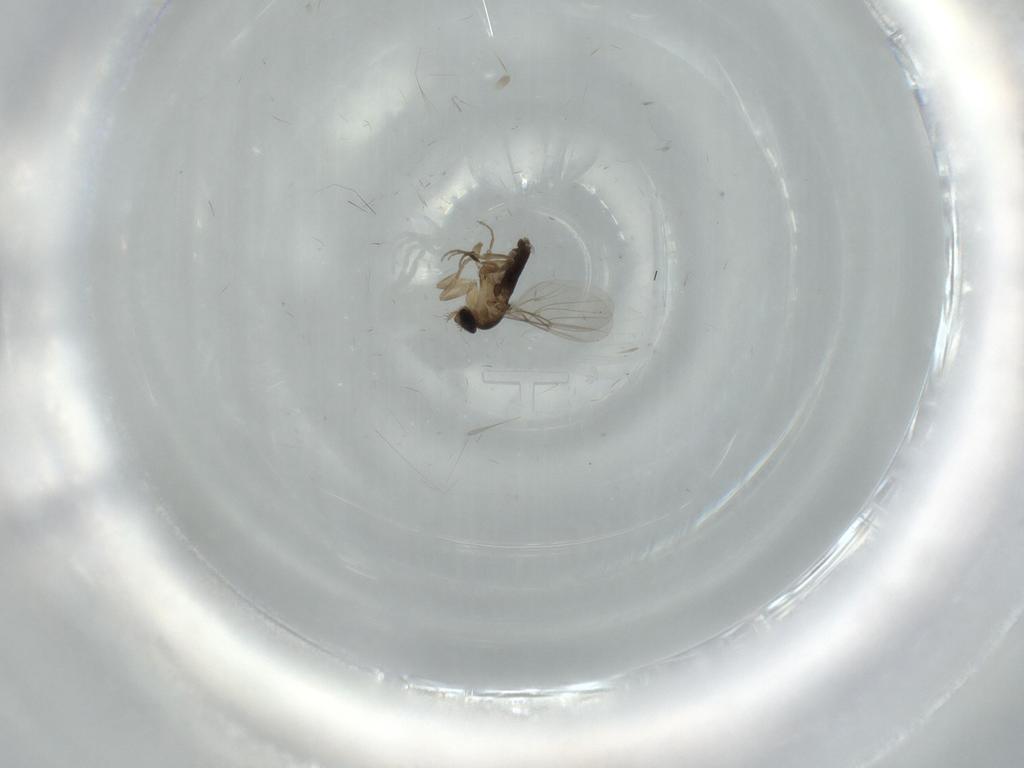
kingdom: Animalia
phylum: Arthropoda
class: Insecta
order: Diptera
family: Phoridae
